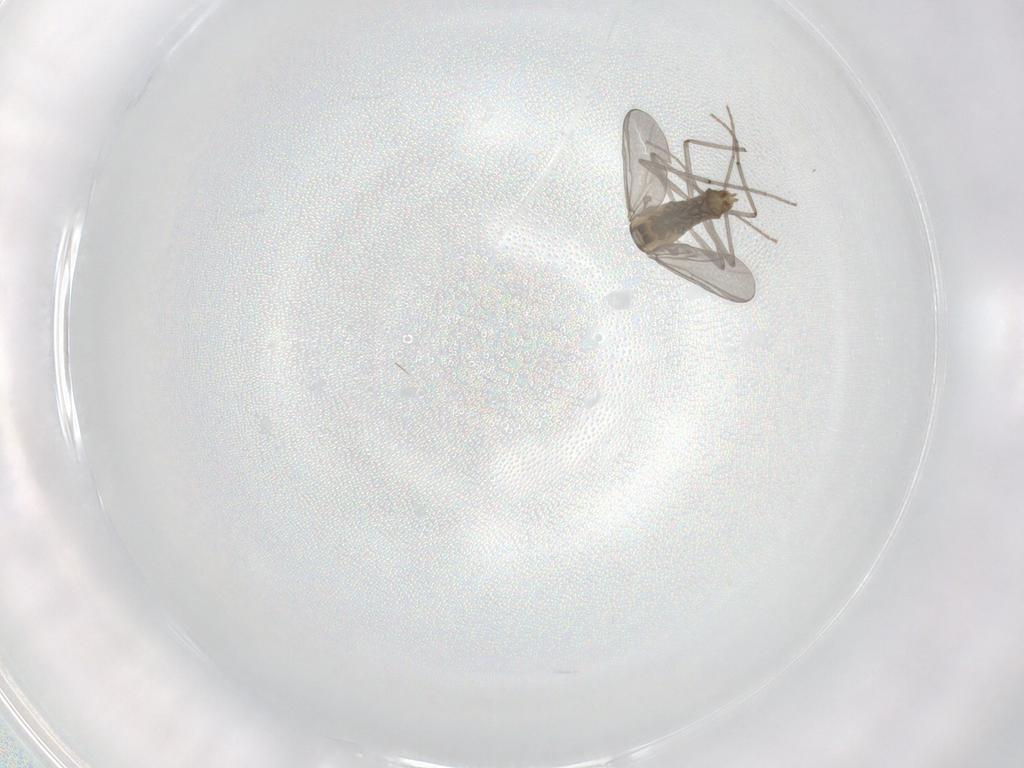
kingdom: Animalia
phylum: Arthropoda
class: Insecta
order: Diptera
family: Chironomidae
